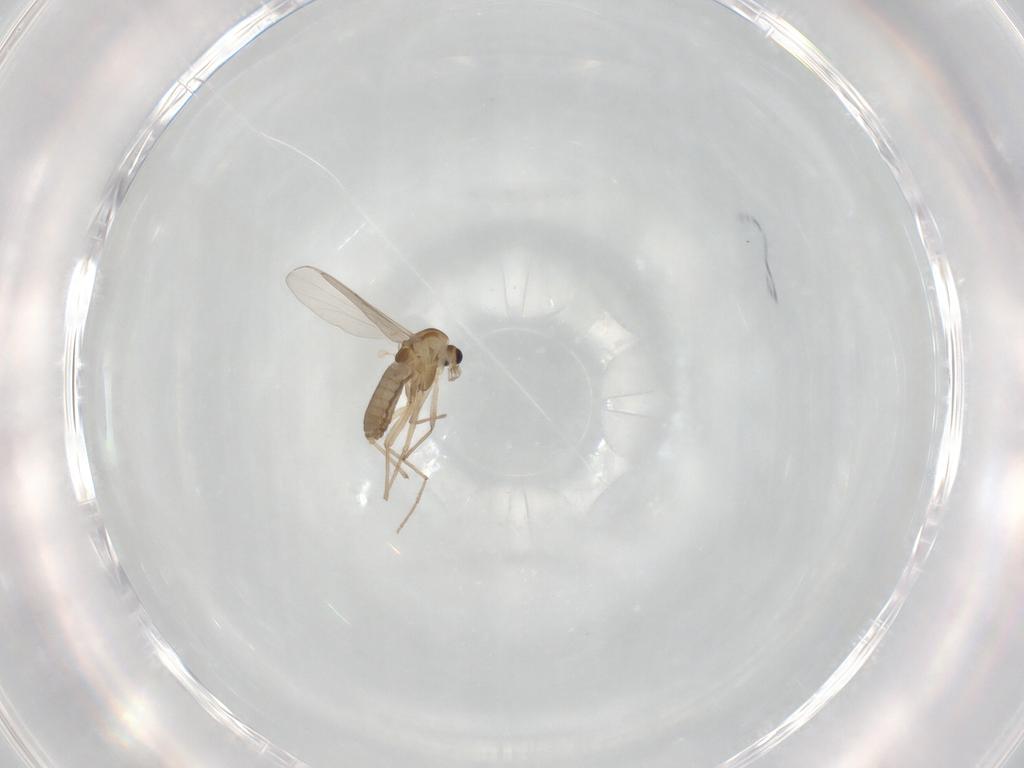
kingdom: Animalia
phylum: Arthropoda
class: Insecta
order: Diptera
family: Chironomidae
